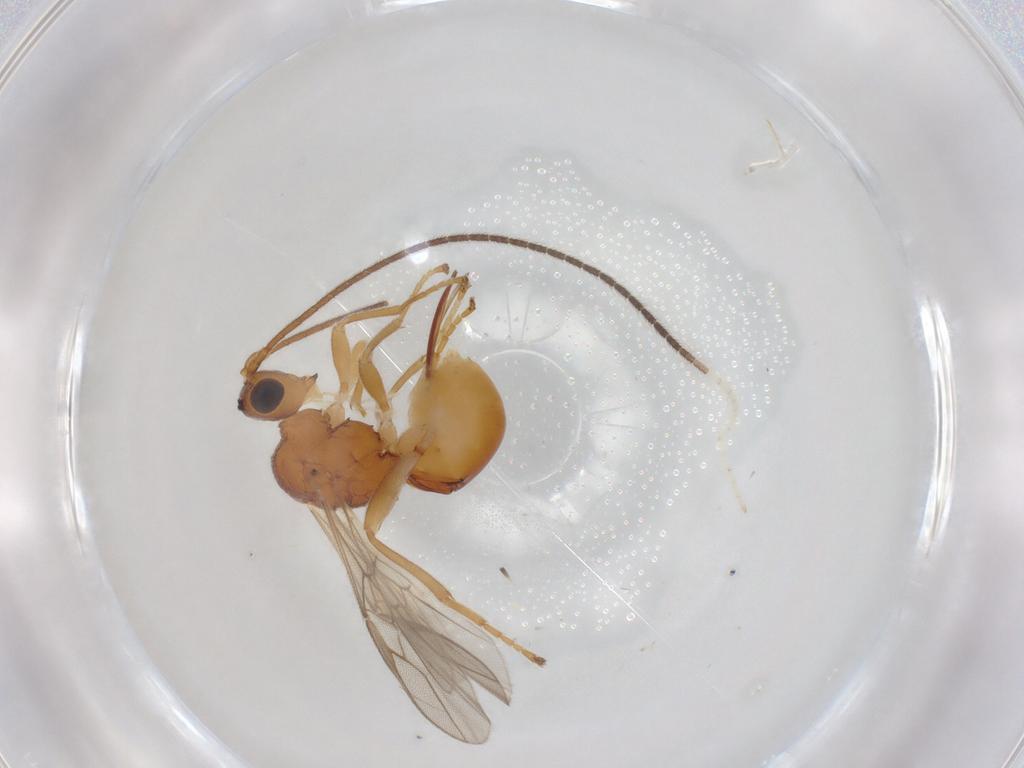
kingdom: Animalia
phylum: Arthropoda
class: Insecta
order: Hymenoptera
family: Braconidae
